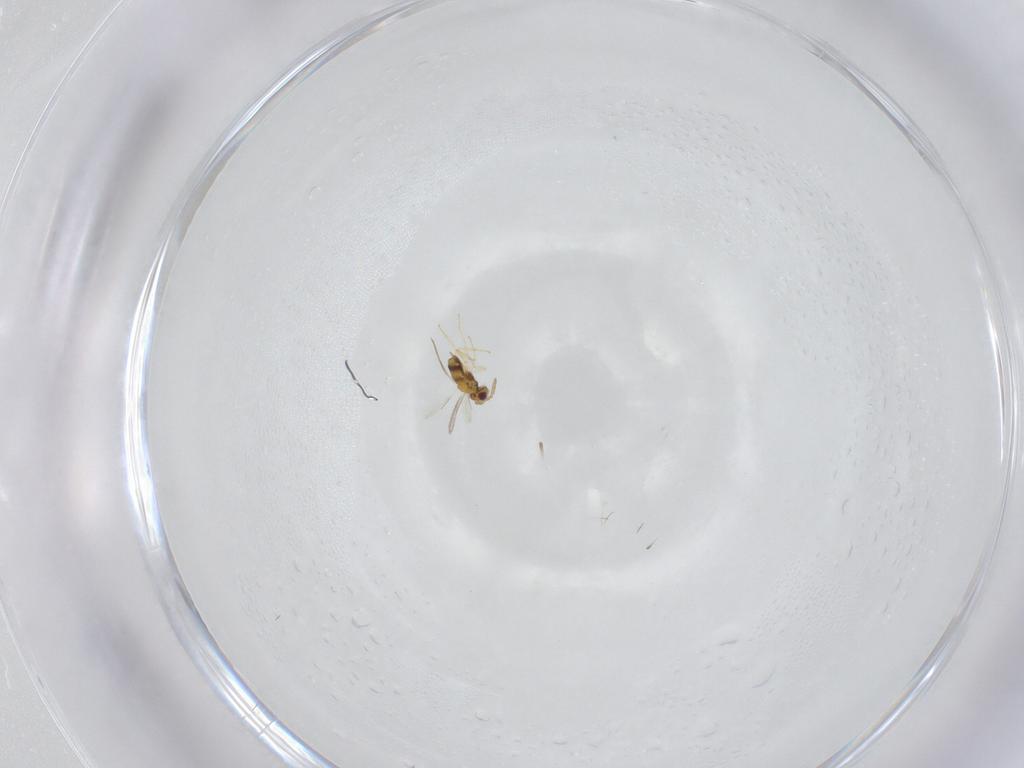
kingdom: Animalia
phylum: Arthropoda
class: Insecta
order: Hymenoptera
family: Aphelinidae
